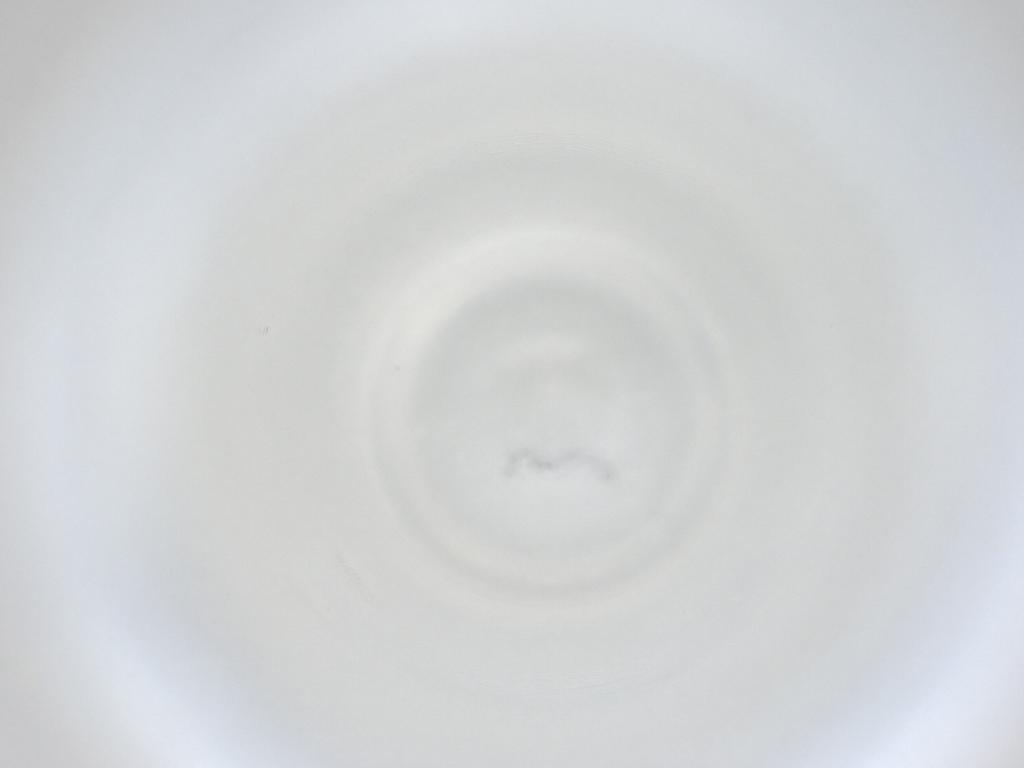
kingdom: Animalia
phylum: Arthropoda
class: Insecta
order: Diptera
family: Cecidomyiidae
